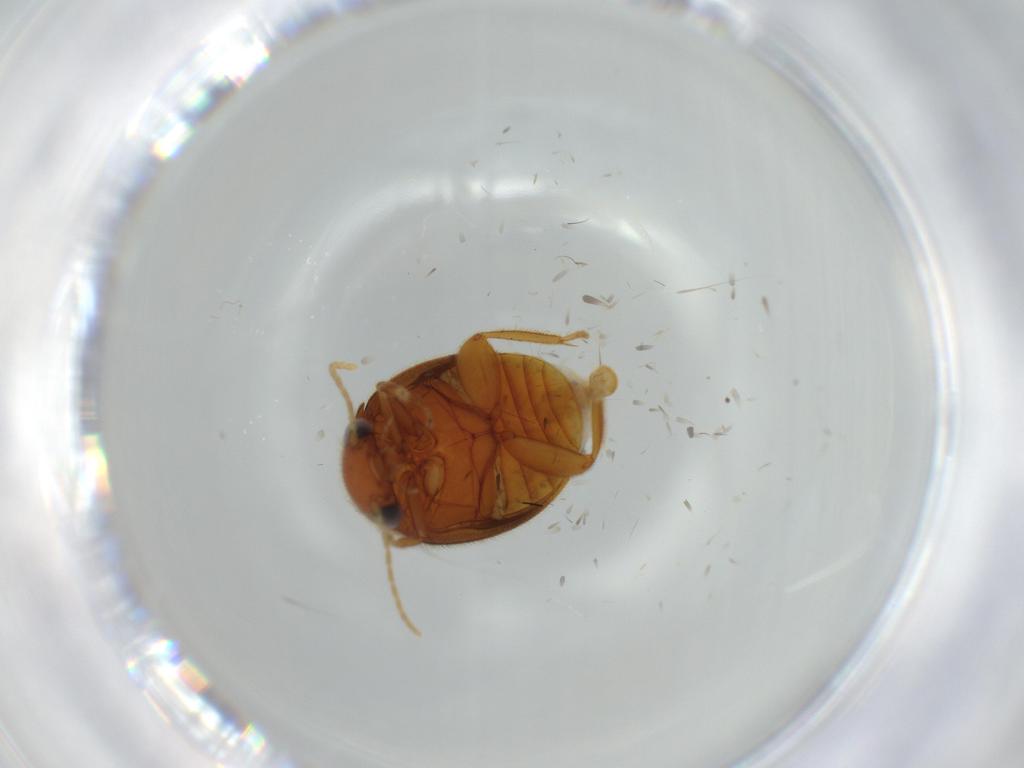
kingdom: Animalia
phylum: Arthropoda
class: Insecta
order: Coleoptera
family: Scirtidae
